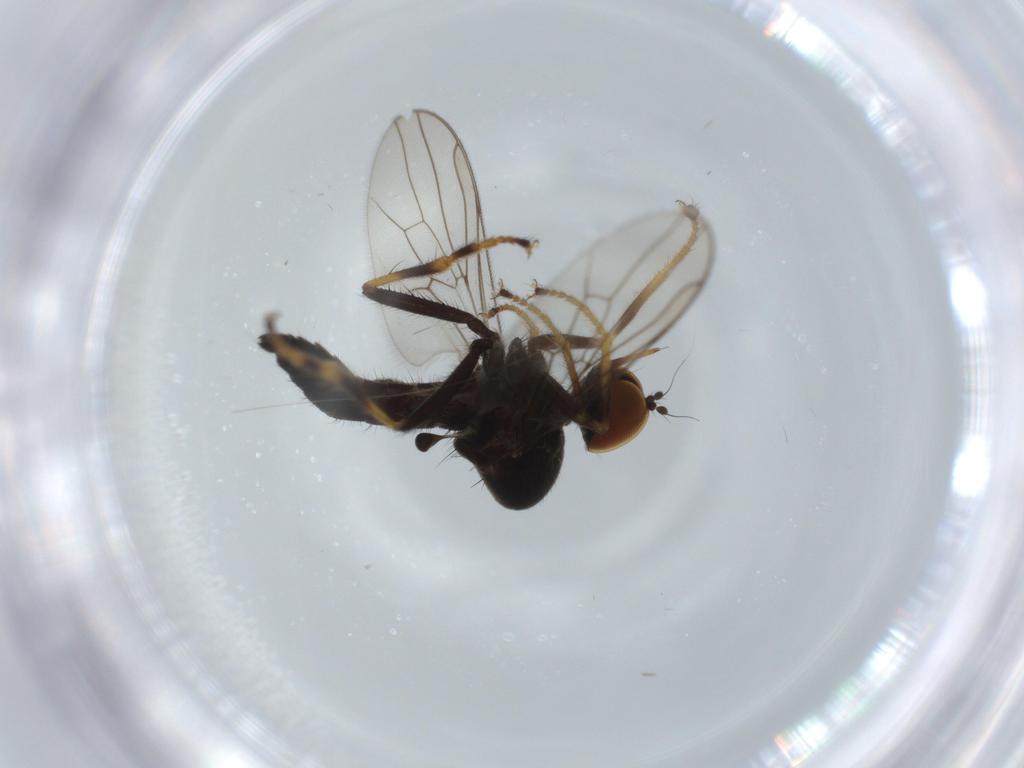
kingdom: Animalia
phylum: Arthropoda
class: Insecta
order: Diptera
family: Hybotidae
